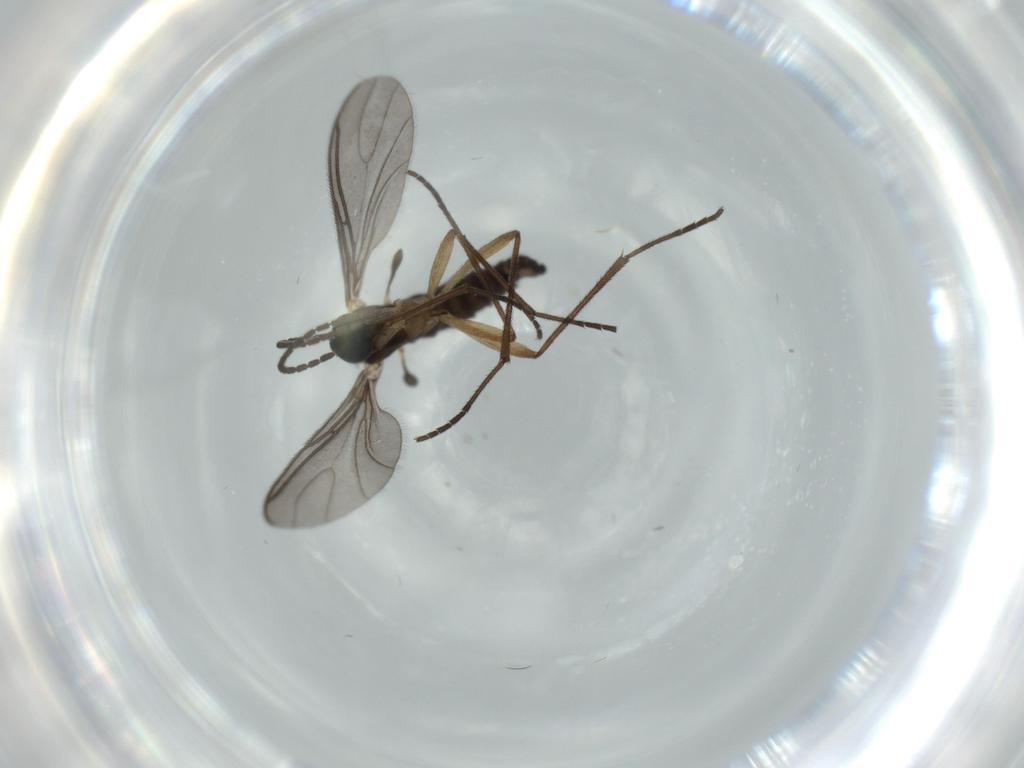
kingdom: Animalia
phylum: Arthropoda
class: Insecta
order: Diptera
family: Sciaridae
